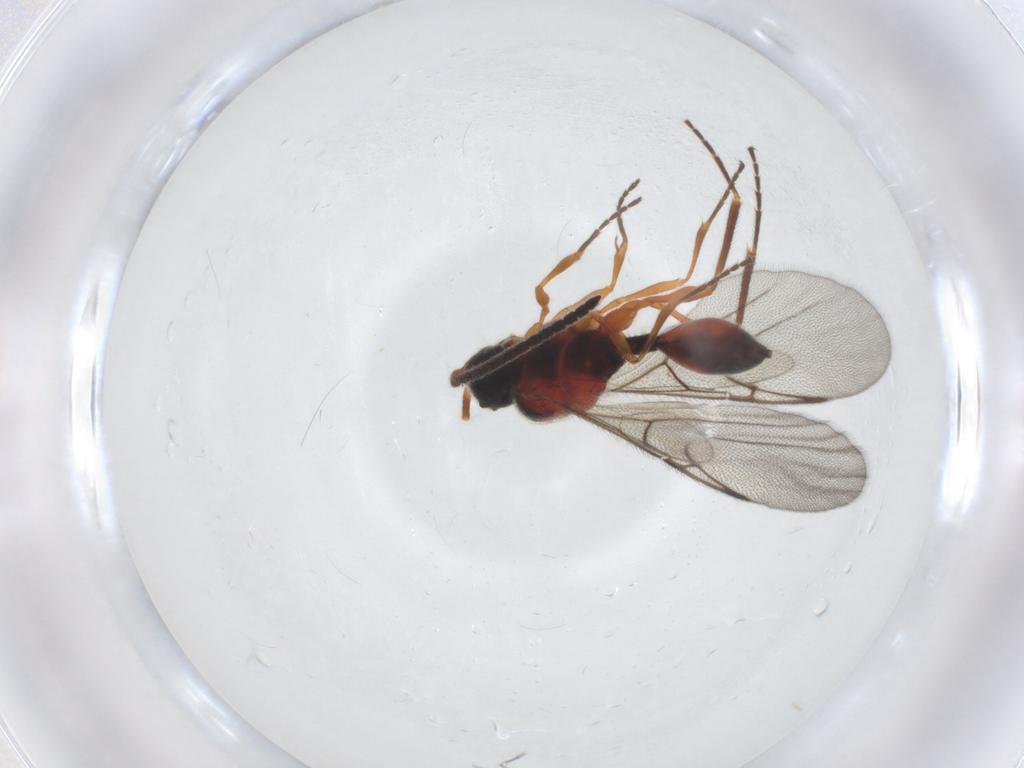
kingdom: Animalia
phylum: Arthropoda
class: Insecta
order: Hymenoptera
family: Diapriidae
